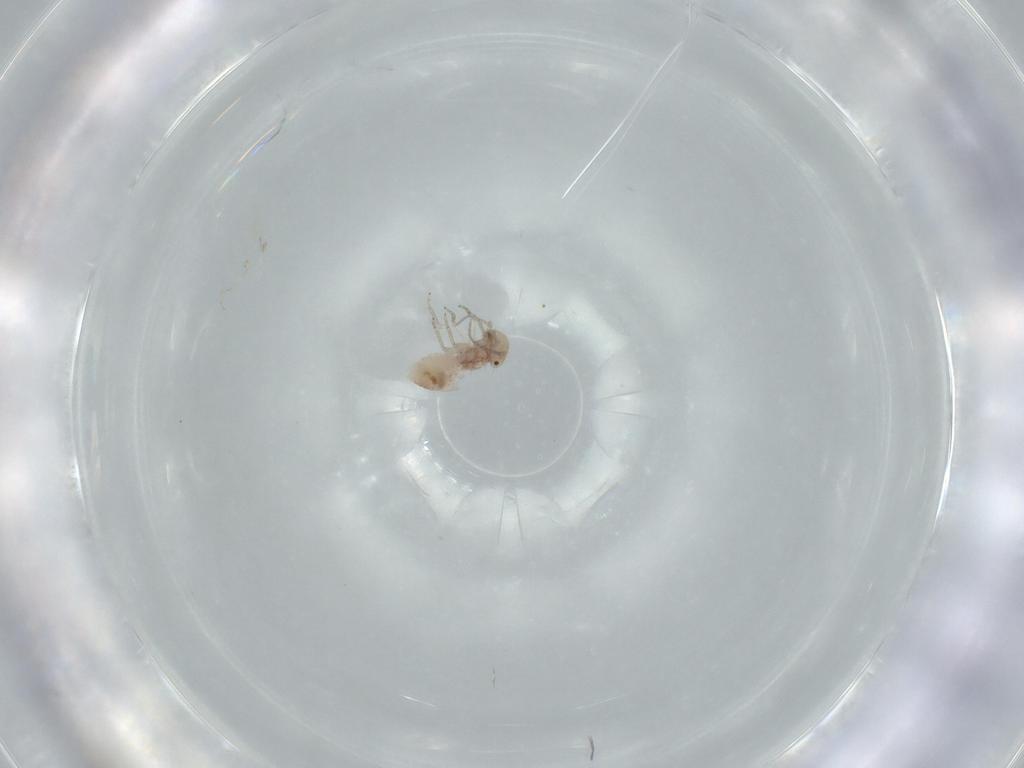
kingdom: Animalia
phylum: Arthropoda
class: Insecta
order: Psocodea
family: Ectopsocidae
